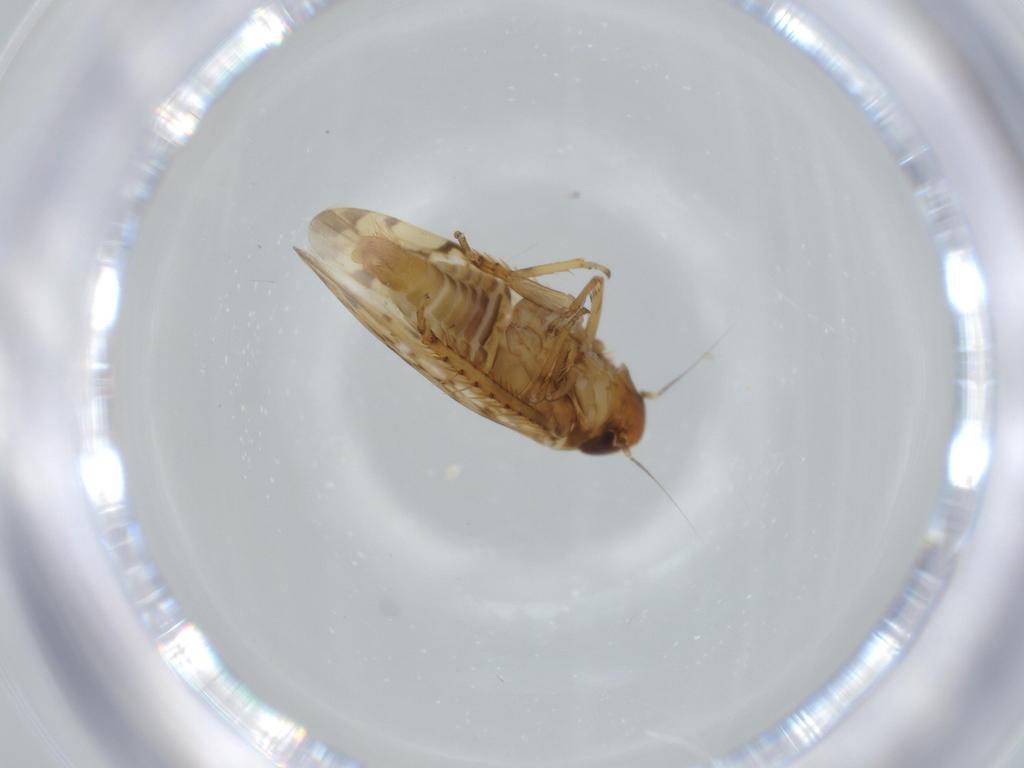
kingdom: Animalia
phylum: Arthropoda
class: Insecta
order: Hemiptera
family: Cicadellidae
